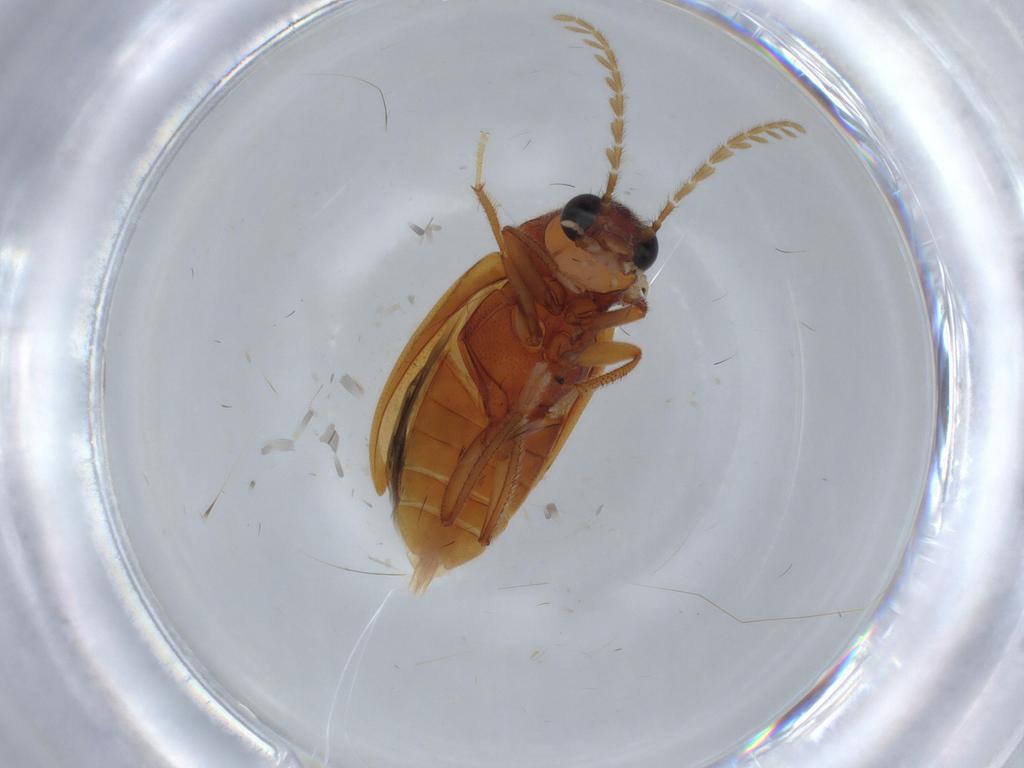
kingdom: Animalia
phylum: Arthropoda
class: Insecta
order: Coleoptera
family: Ptilodactylidae
